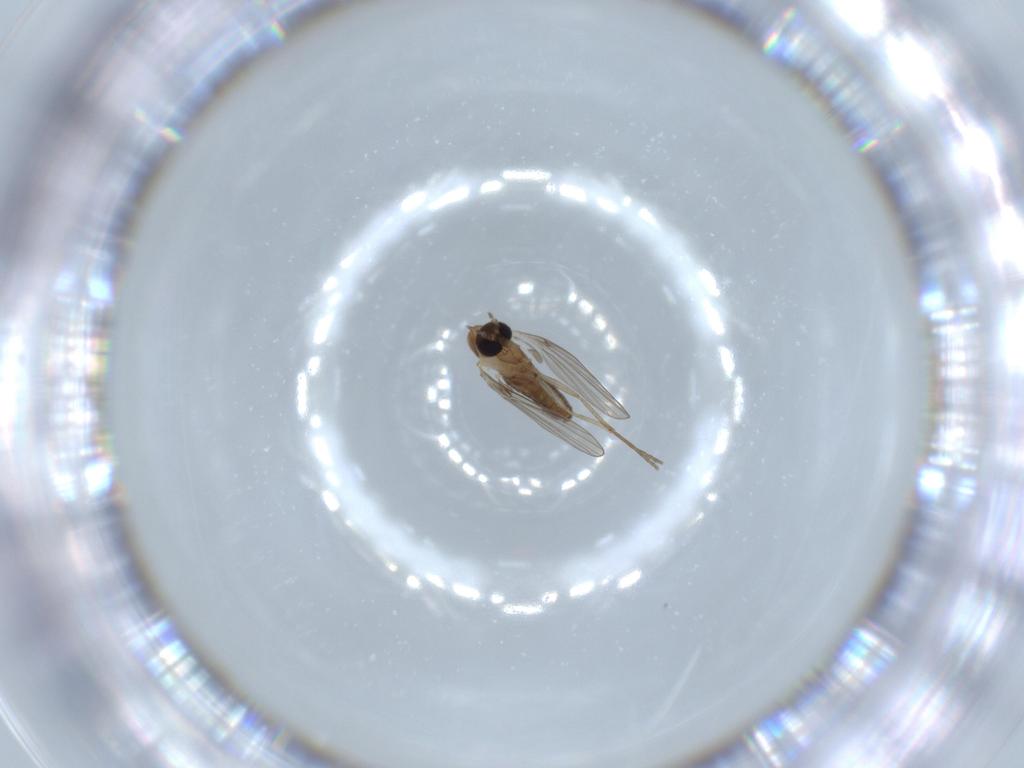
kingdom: Animalia
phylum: Arthropoda
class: Insecta
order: Diptera
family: Psychodidae
